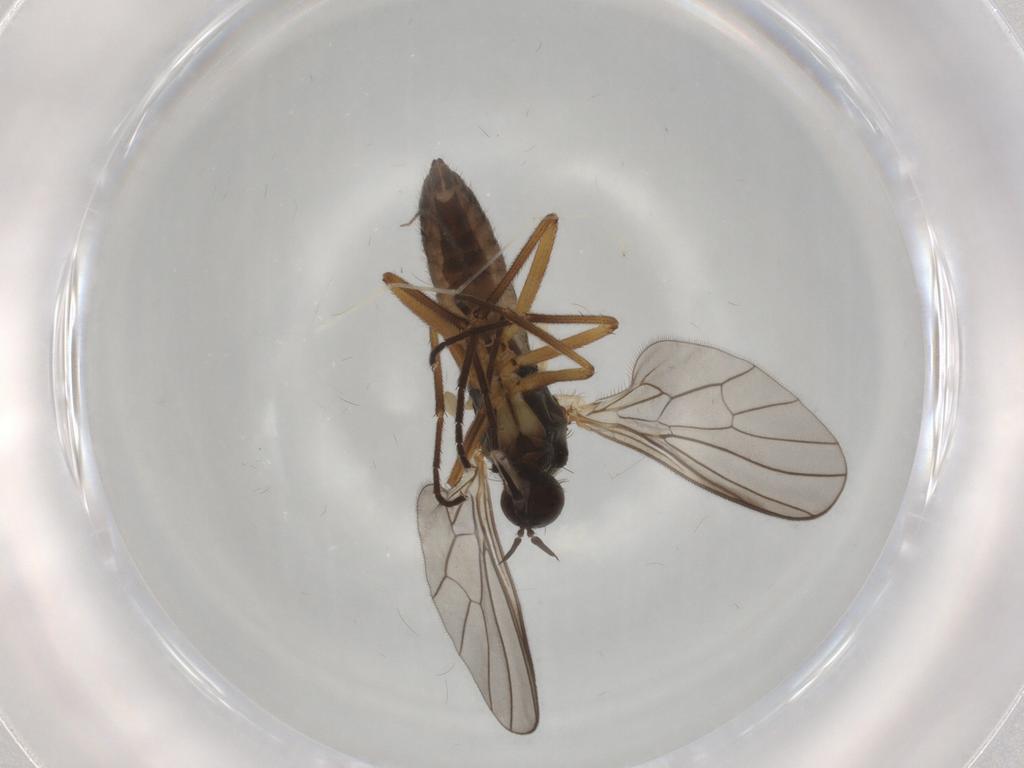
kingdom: Animalia
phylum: Arthropoda
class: Insecta
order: Diptera
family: Empididae
